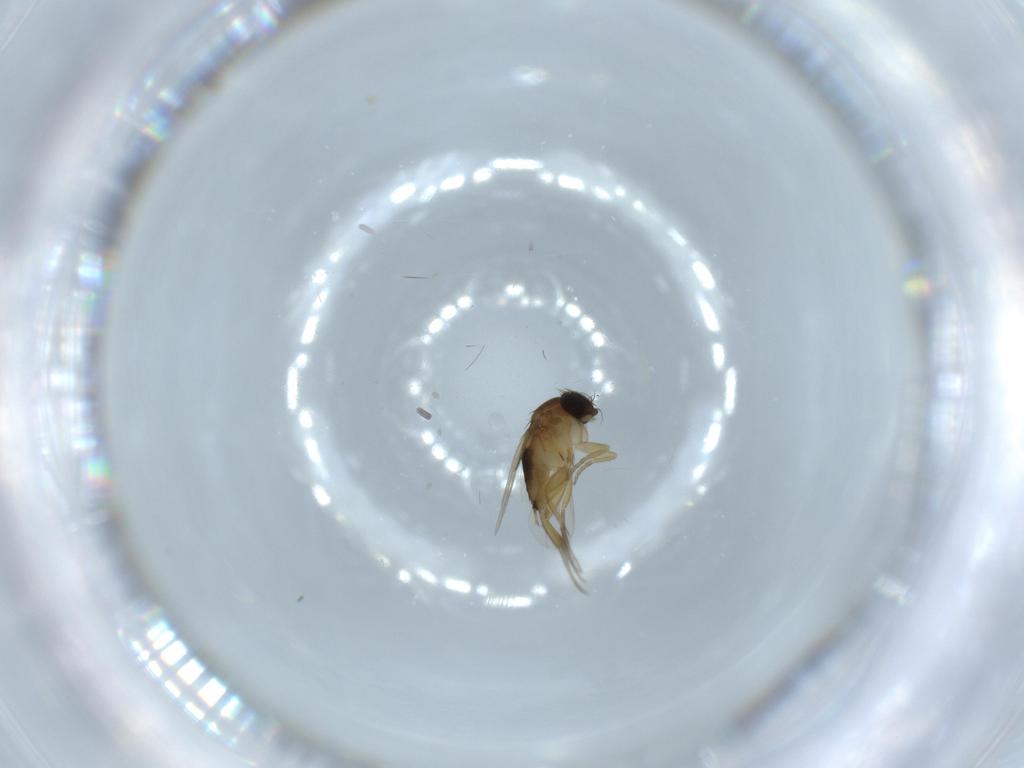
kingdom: Animalia
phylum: Arthropoda
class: Insecta
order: Diptera
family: Phoridae
